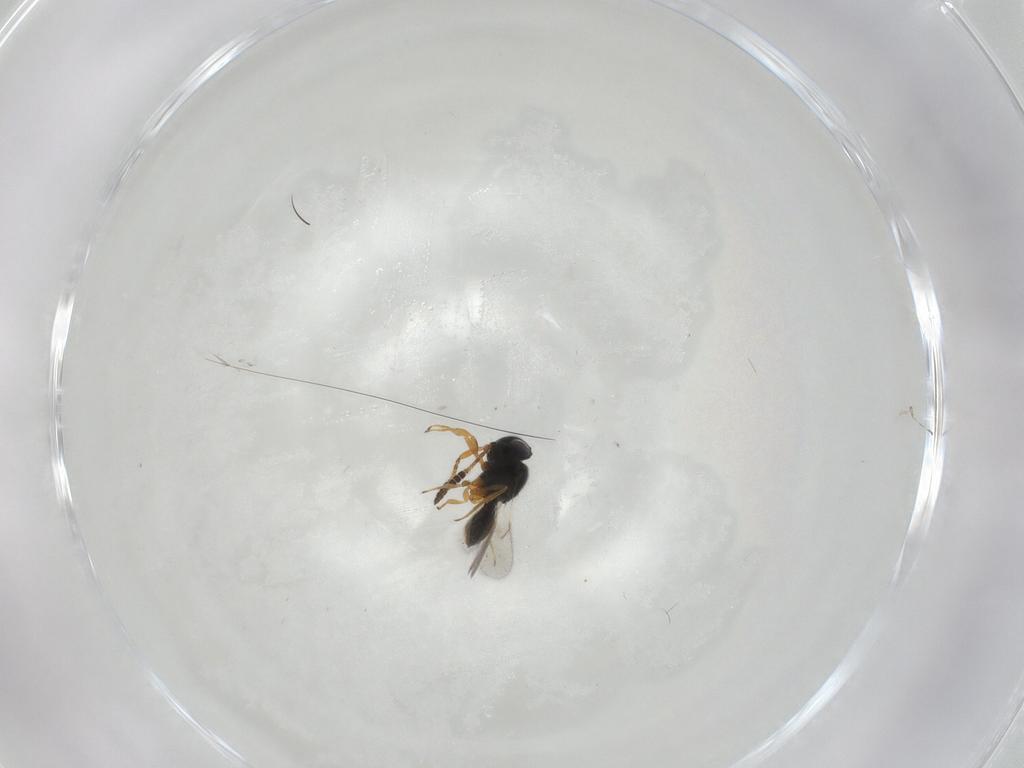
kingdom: Animalia
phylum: Arthropoda
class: Insecta
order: Hymenoptera
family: Scelionidae
